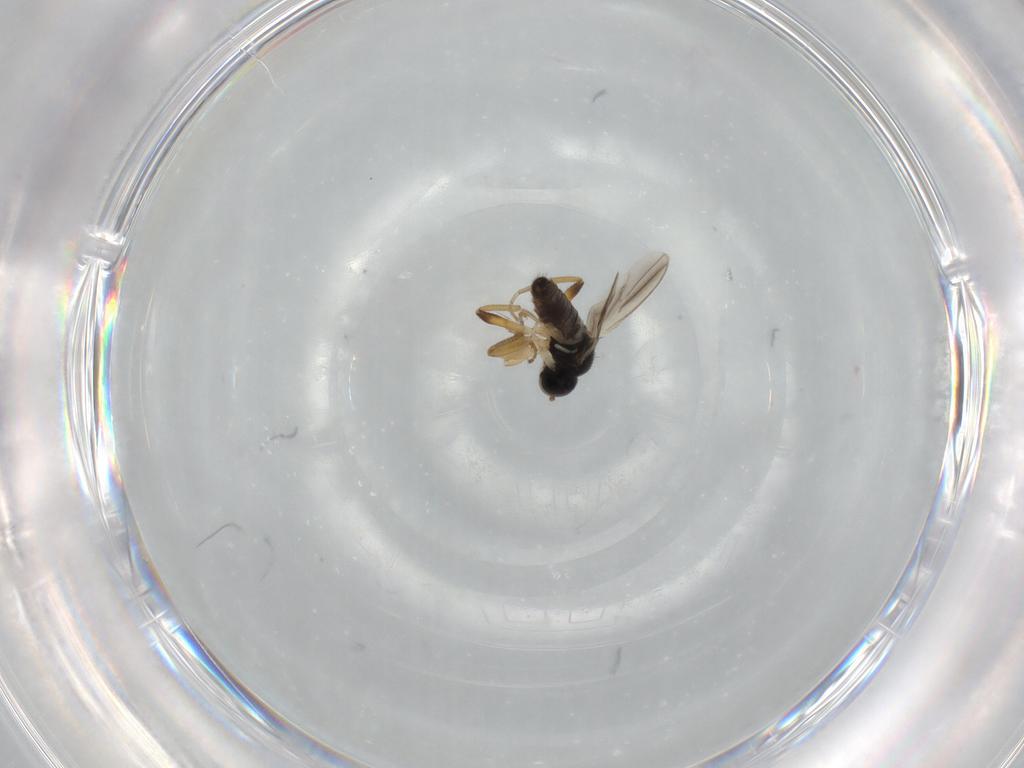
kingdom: Animalia
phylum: Arthropoda
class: Insecta
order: Diptera
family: Hybotidae
